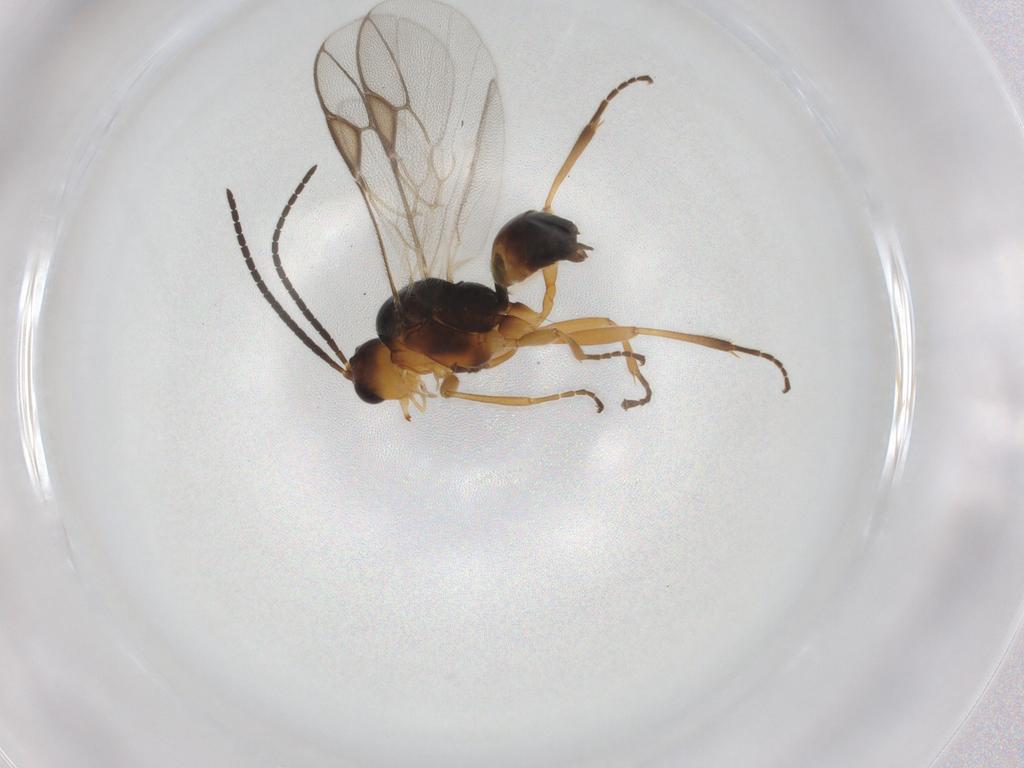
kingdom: Animalia
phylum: Arthropoda
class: Insecta
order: Hymenoptera
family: Braconidae
